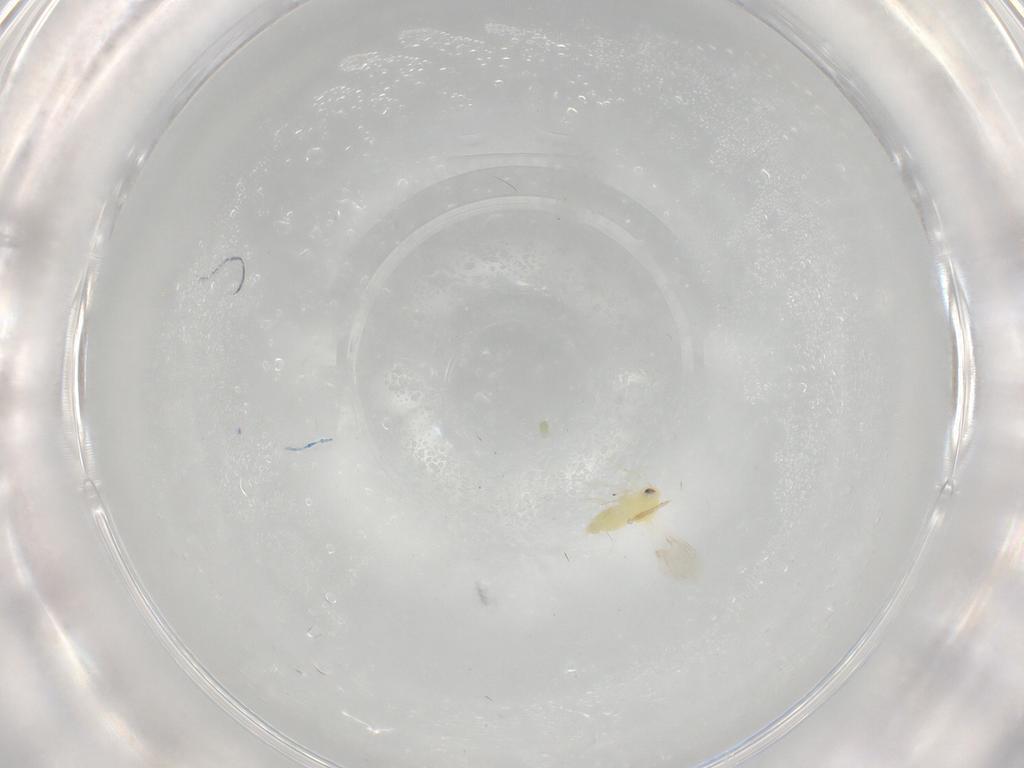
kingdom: Animalia
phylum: Arthropoda
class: Insecta
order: Hemiptera
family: Aleyrodidae
